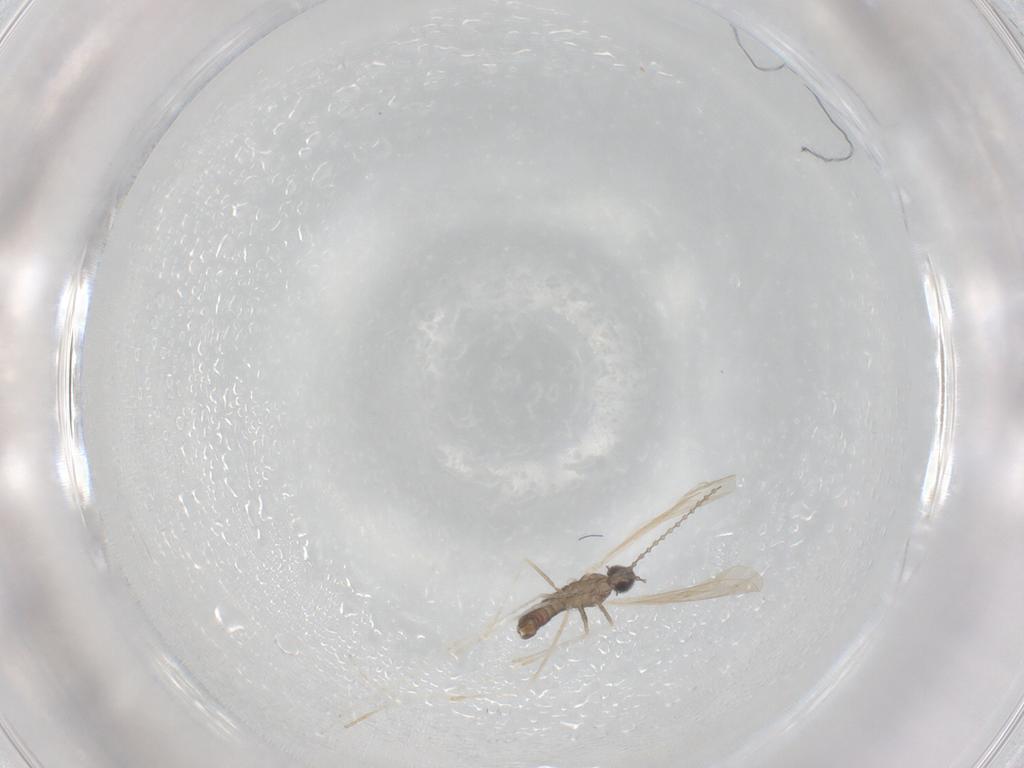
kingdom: Animalia
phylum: Arthropoda
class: Insecta
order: Diptera
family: Cecidomyiidae
